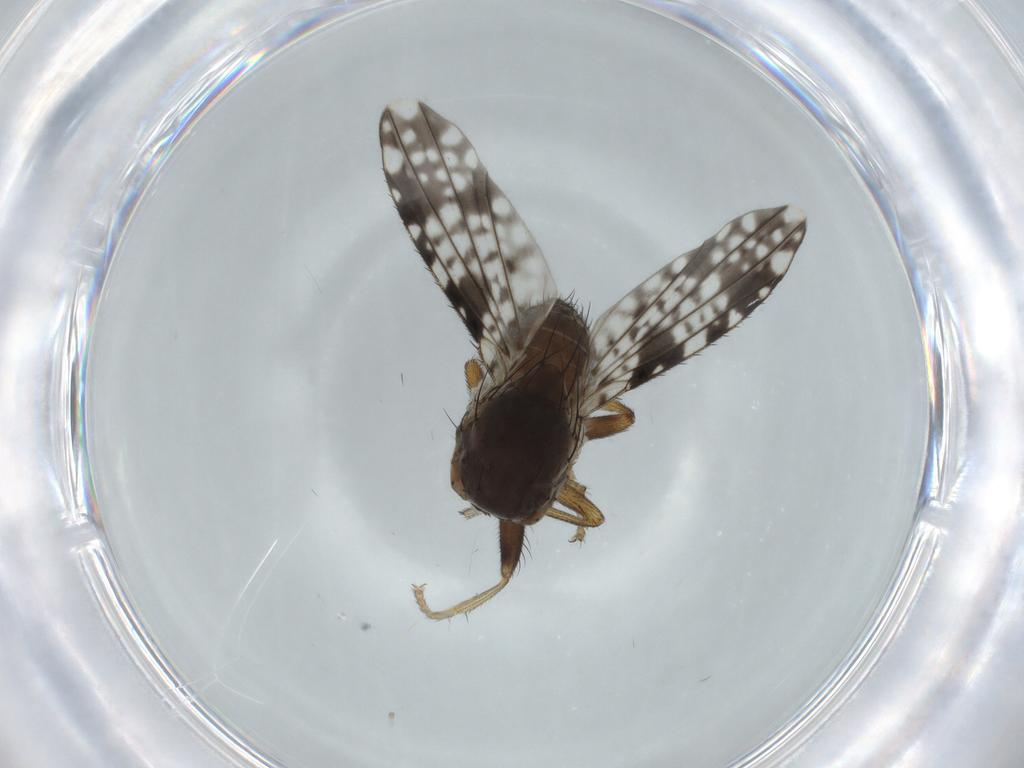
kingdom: Animalia
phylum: Arthropoda
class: Insecta
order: Diptera
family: Tephritidae
